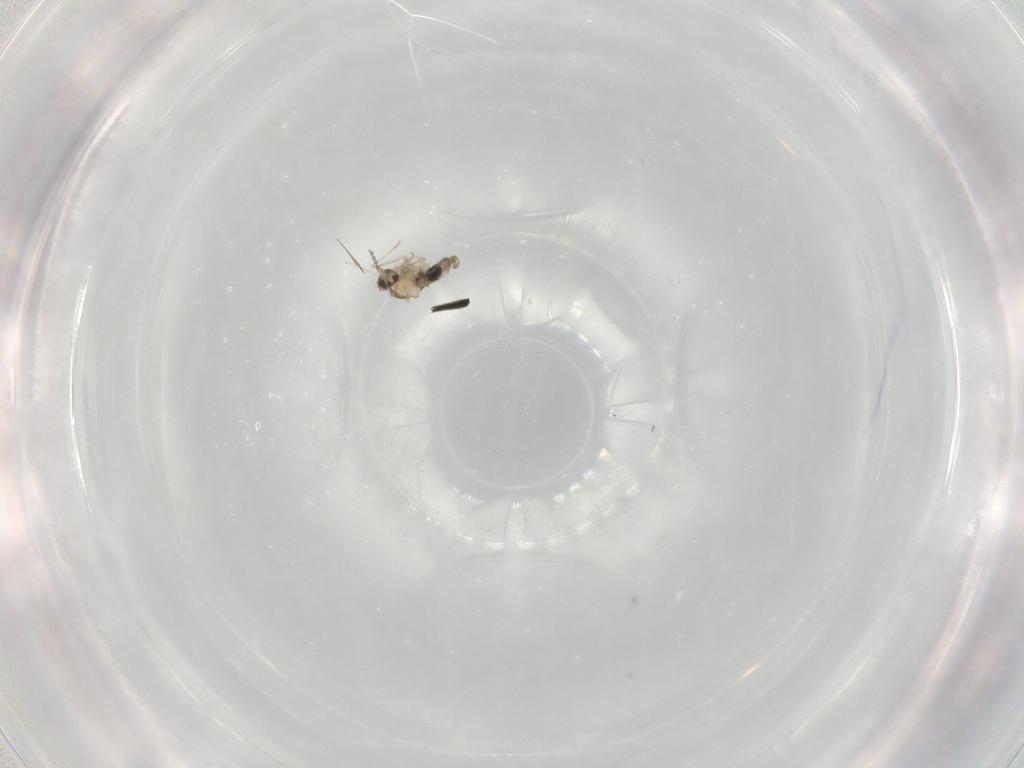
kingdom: Animalia
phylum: Arthropoda
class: Insecta
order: Diptera
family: Cecidomyiidae
